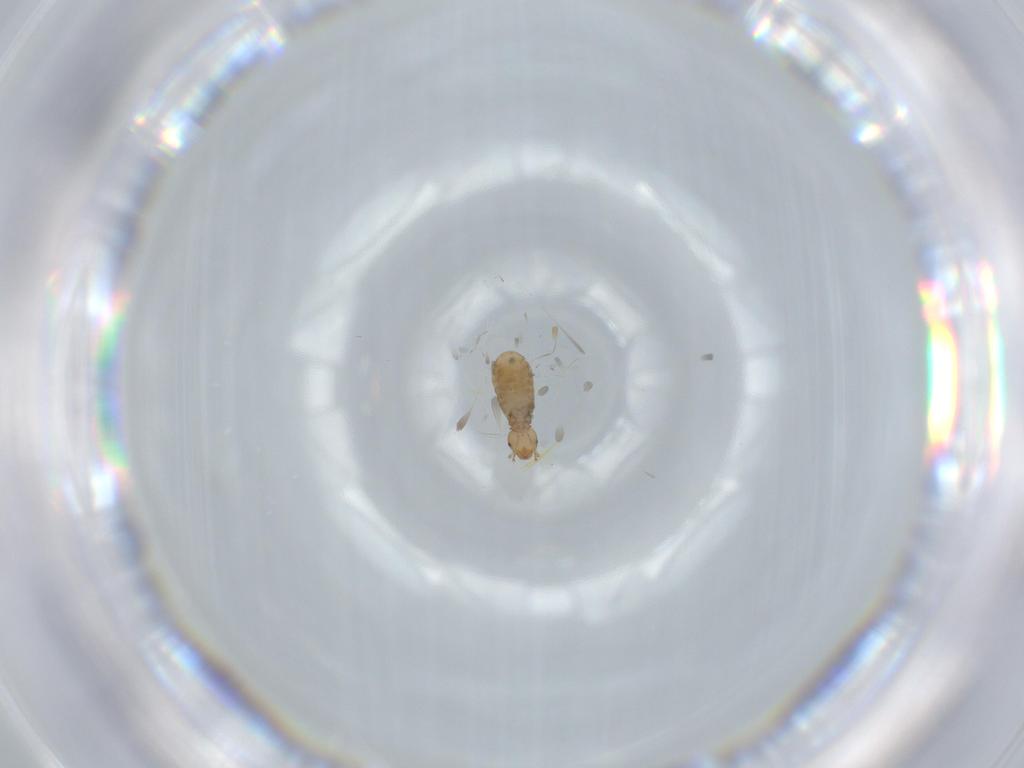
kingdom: Animalia
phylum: Arthropoda
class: Insecta
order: Psocodea
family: Liposcelididae
